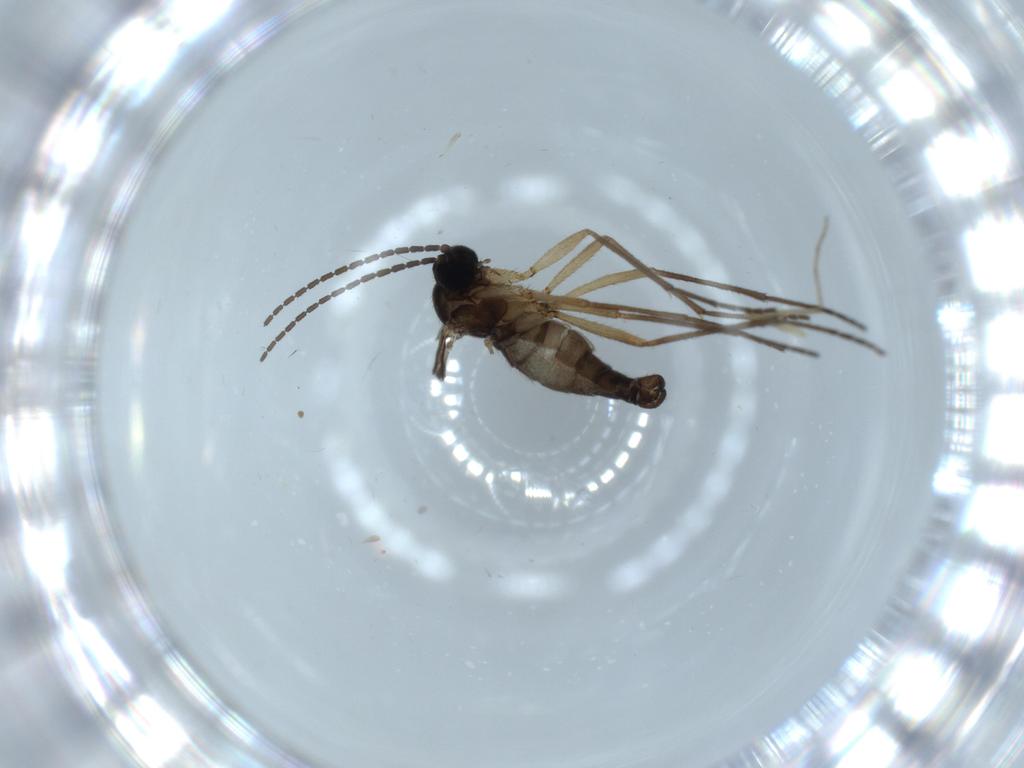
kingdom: Animalia
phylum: Arthropoda
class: Insecta
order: Diptera
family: Sciaridae
